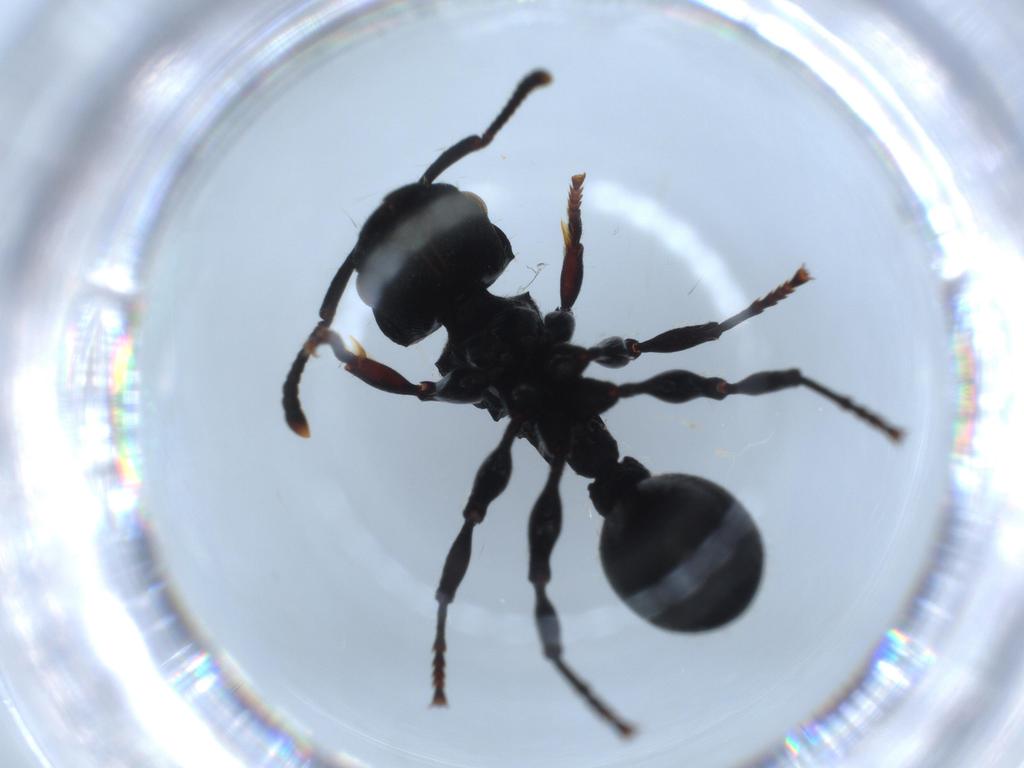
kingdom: Animalia
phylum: Arthropoda
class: Insecta
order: Hymenoptera
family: Formicidae
